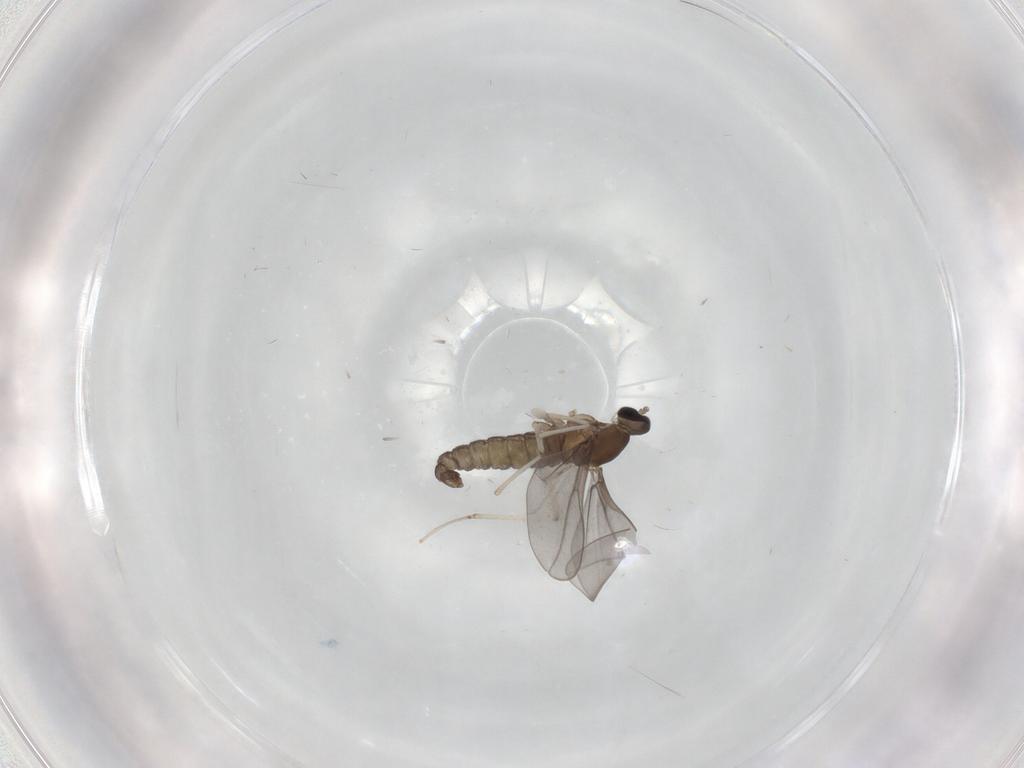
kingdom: Animalia
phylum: Arthropoda
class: Insecta
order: Diptera
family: Cecidomyiidae
